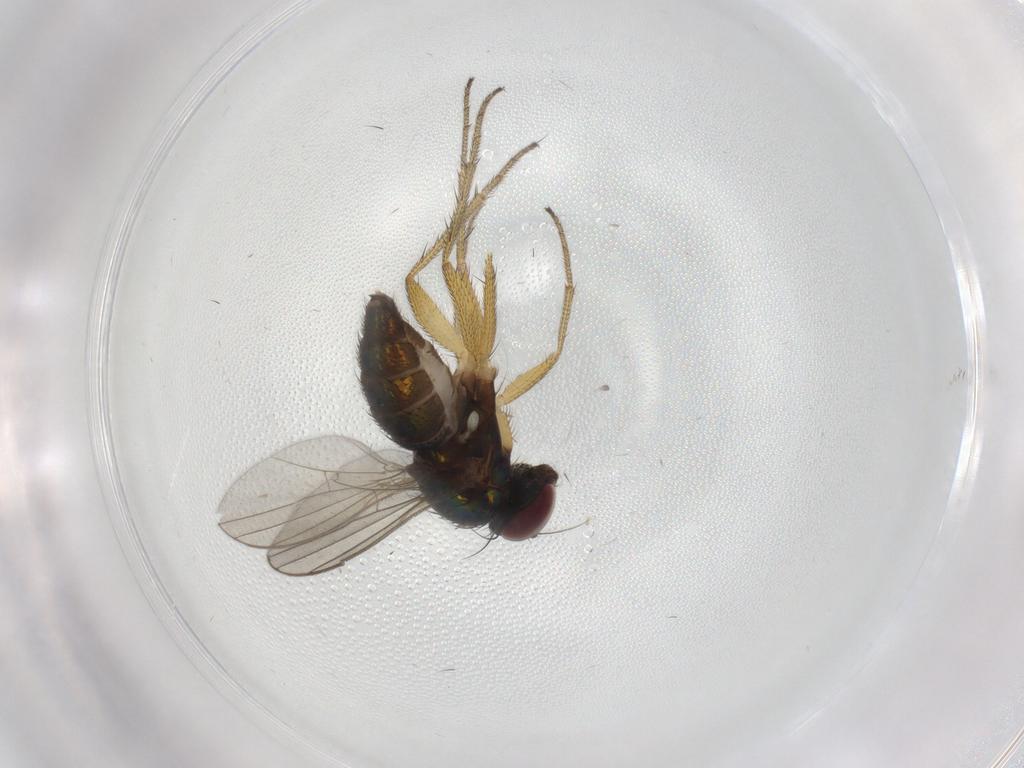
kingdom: Animalia
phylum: Arthropoda
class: Insecta
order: Diptera
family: Dolichopodidae
